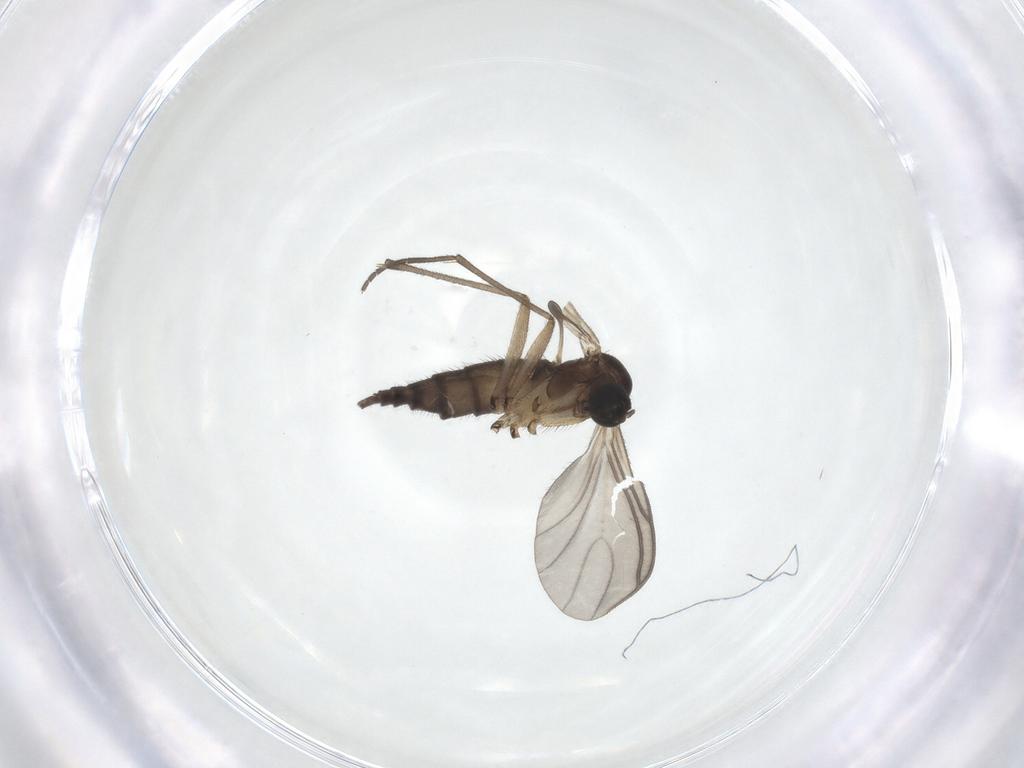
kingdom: Animalia
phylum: Arthropoda
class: Insecta
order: Diptera
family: Sciaridae
